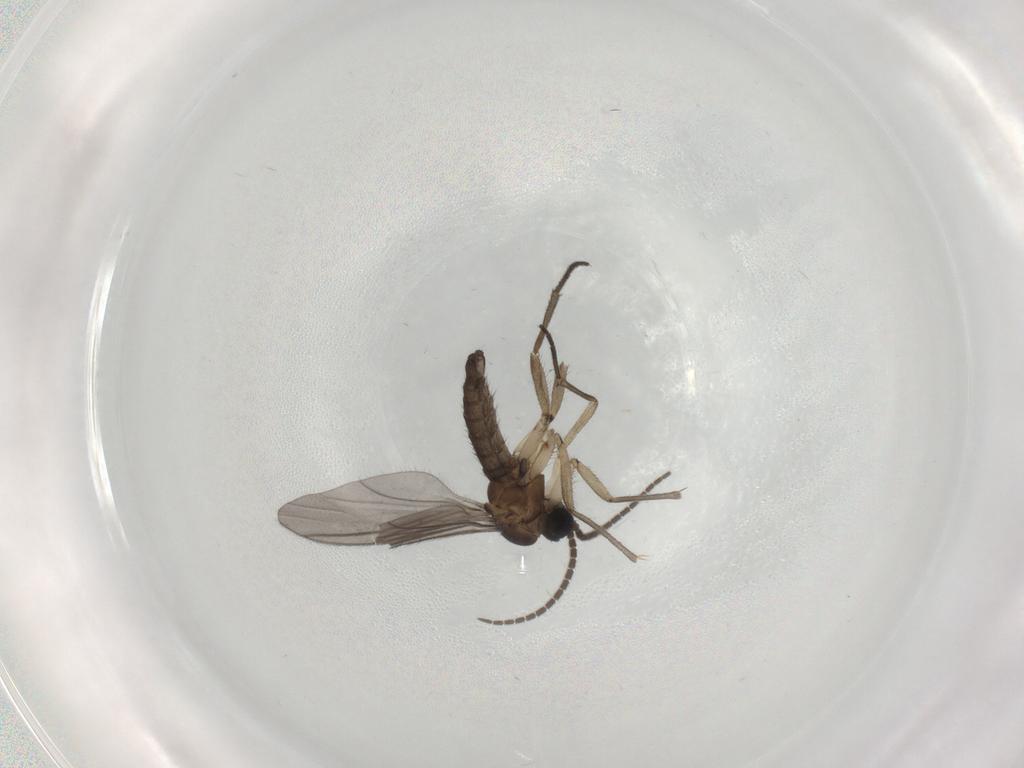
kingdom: Animalia
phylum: Arthropoda
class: Insecta
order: Diptera
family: Sciaridae
